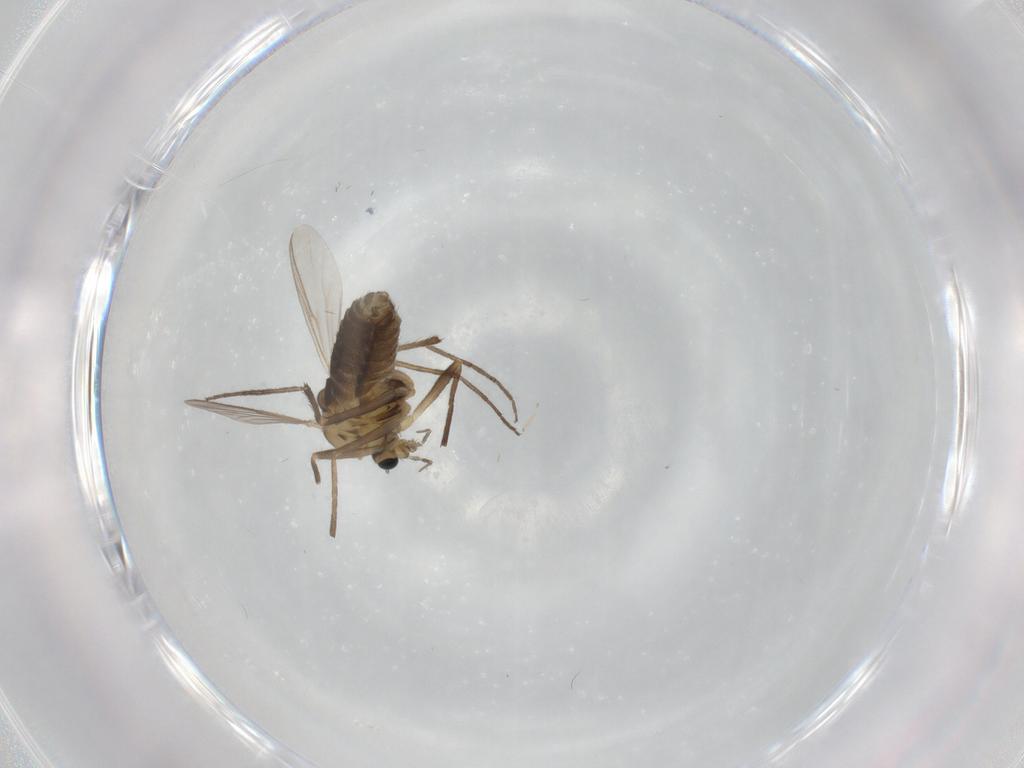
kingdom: Animalia
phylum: Arthropoda
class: Insecta
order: Diptera
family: Chironomidae
